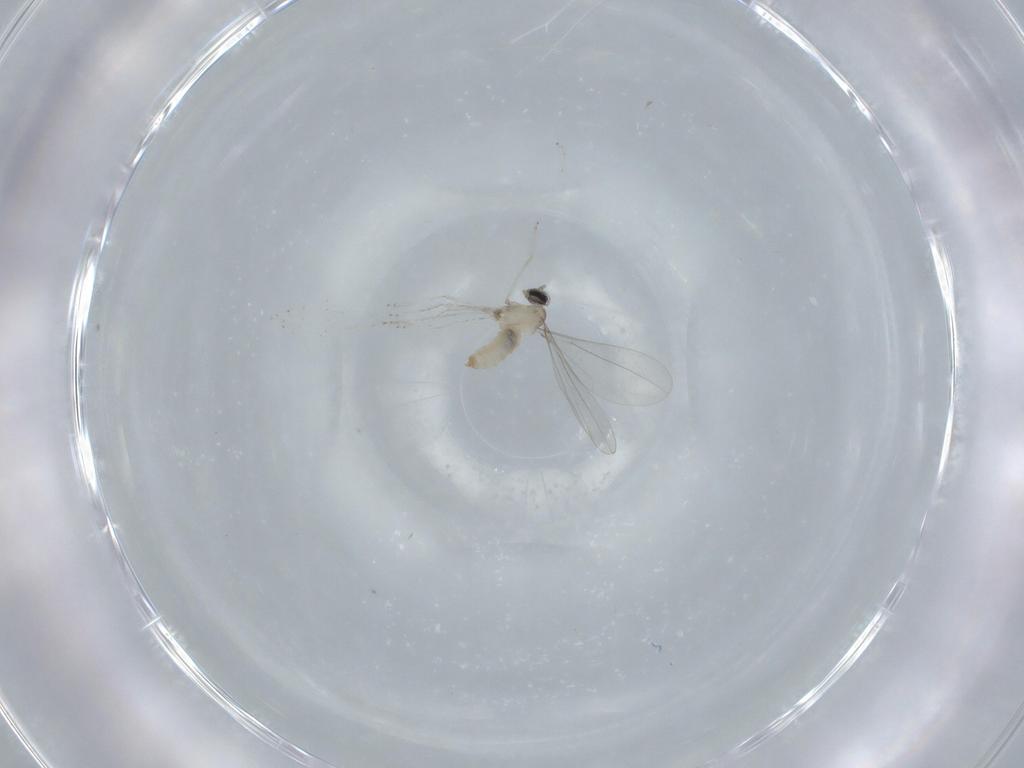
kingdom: Animalia
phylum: Arthropoda
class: Insecta
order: Diptera
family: Cecidomyiidae
